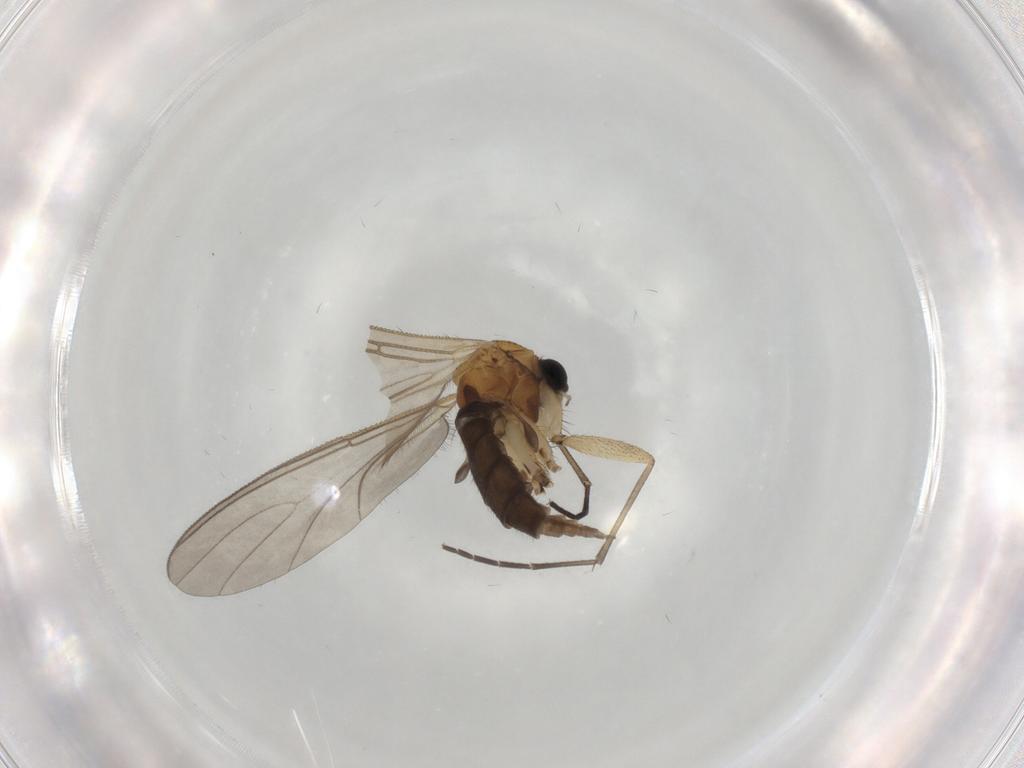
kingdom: Animalia
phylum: Arthropoda
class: Insecta
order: Diptera
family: Sciaridae
